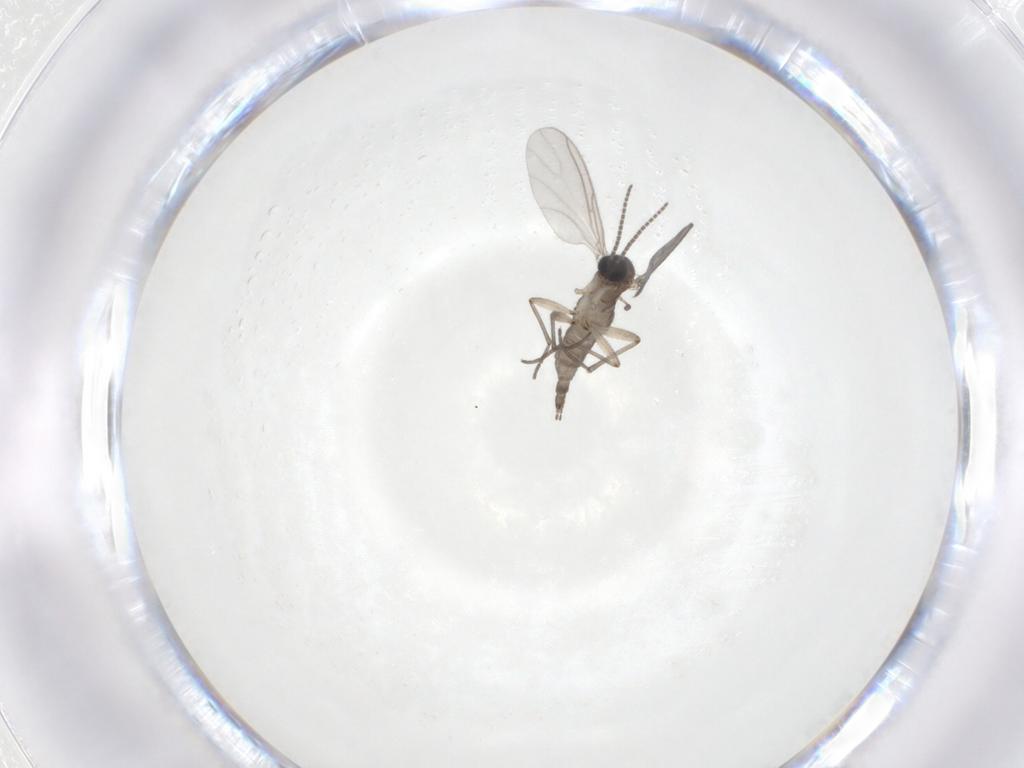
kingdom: Animalia
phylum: Arthropoda
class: Insecta
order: Diptera
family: Sciaridae
